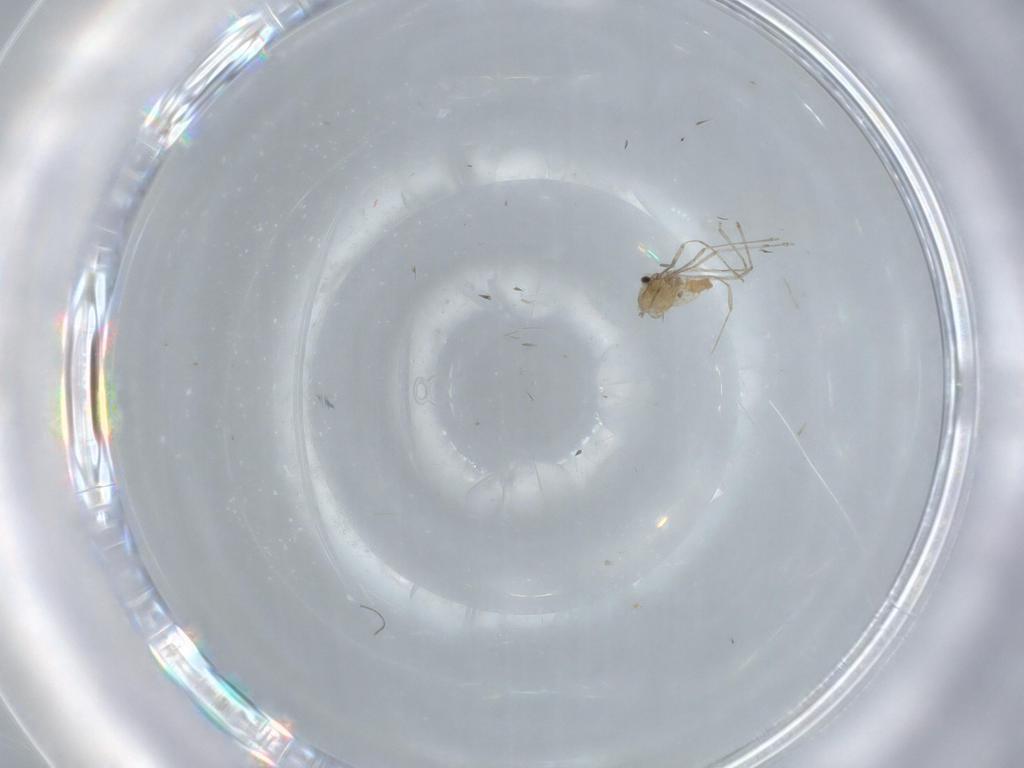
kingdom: Animalia
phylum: Arthropoda
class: Insecta
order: Diptera
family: Cecidomyiidae
